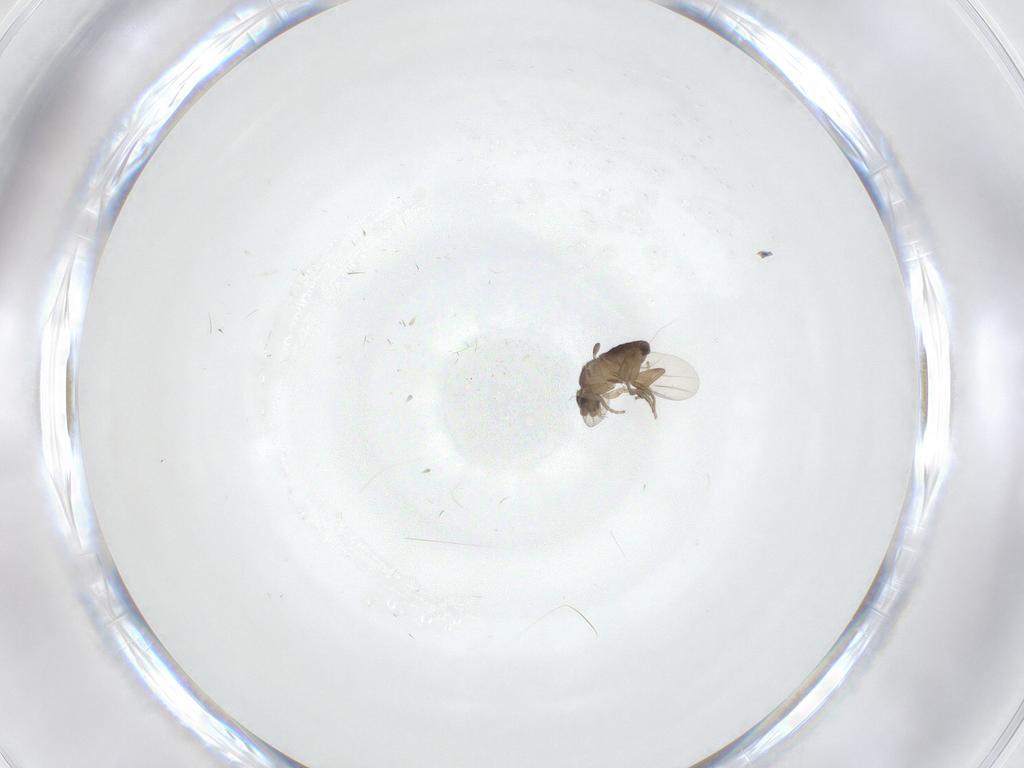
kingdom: Animalia
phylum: Arthropoda
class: Insecta
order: Diptera
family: Phoridae
